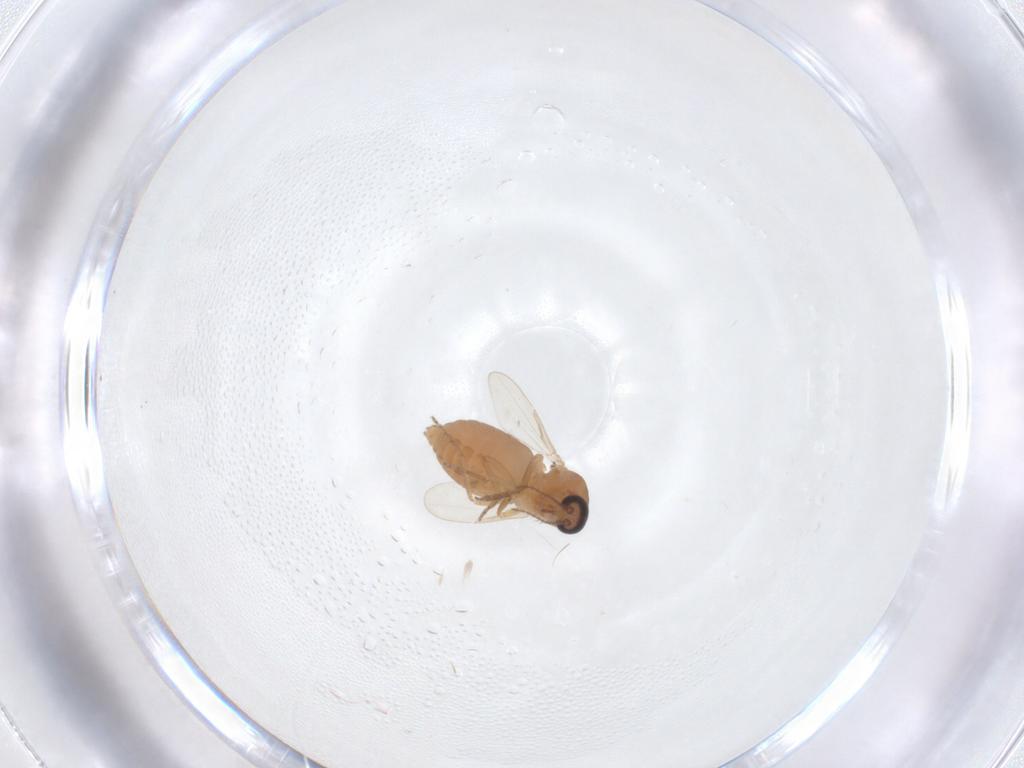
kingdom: Animalia
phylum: Arthropoda
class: Insecta
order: Diptera
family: Ceratopogonidae
